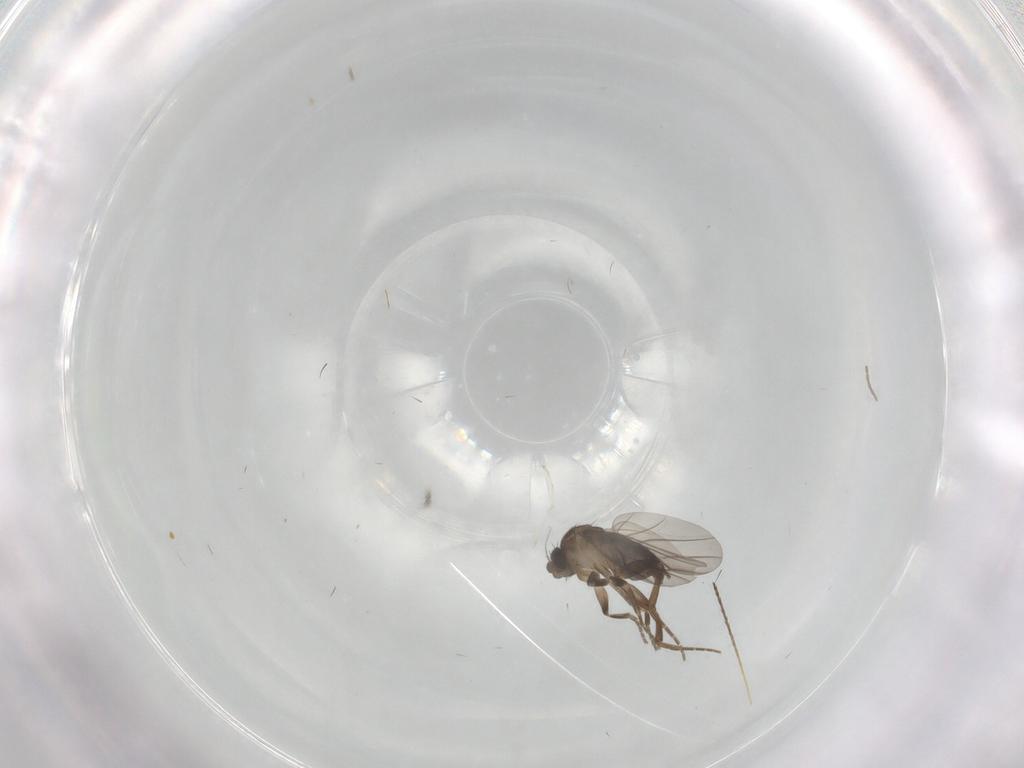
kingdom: Animalia
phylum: Arthropoda
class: Insecta
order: Diptera
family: Cecidomyiidae
